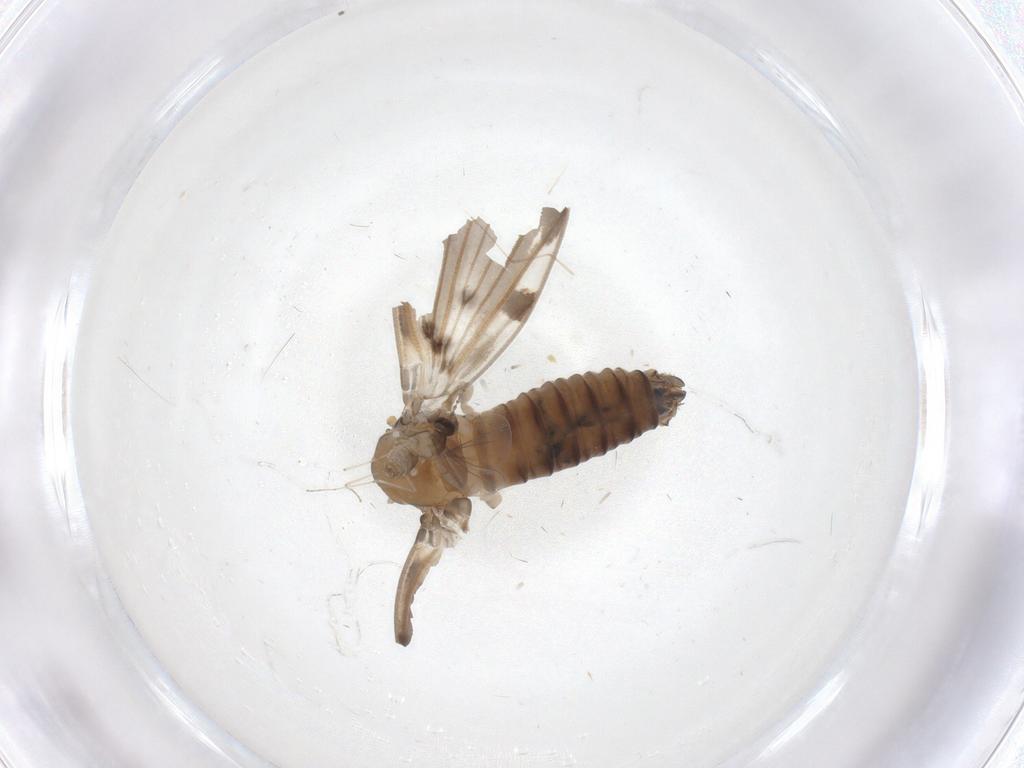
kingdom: Animalia
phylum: Arthropoda
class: Insecta
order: Diptera
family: Psychodidae
